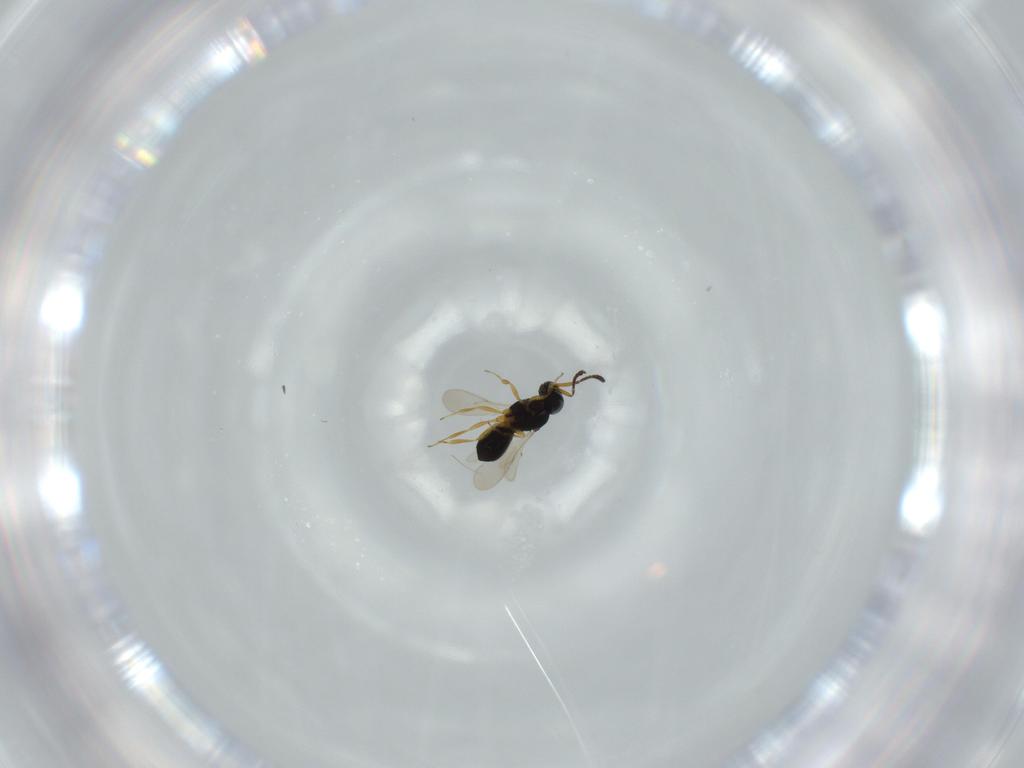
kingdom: Animalia
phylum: Arthropoda
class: Insecta
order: Hymenoptera
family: Scelionidae
